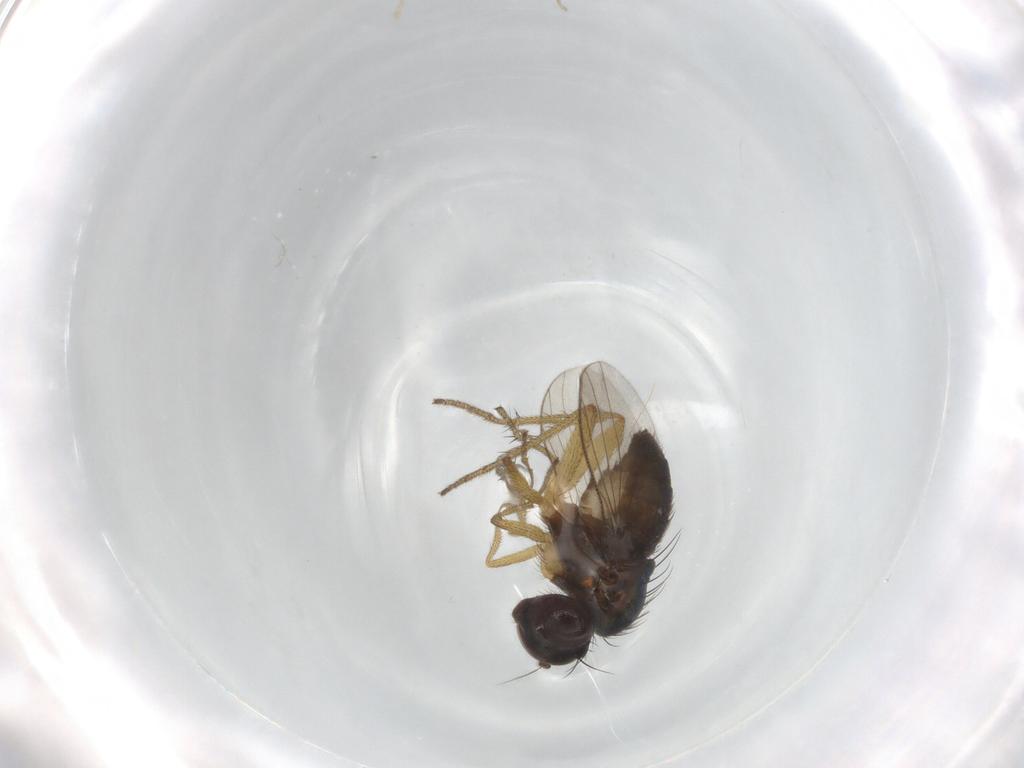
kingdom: Animalia
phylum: Arthropoda
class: Insecta
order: Diptera
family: Dolichopodidae
